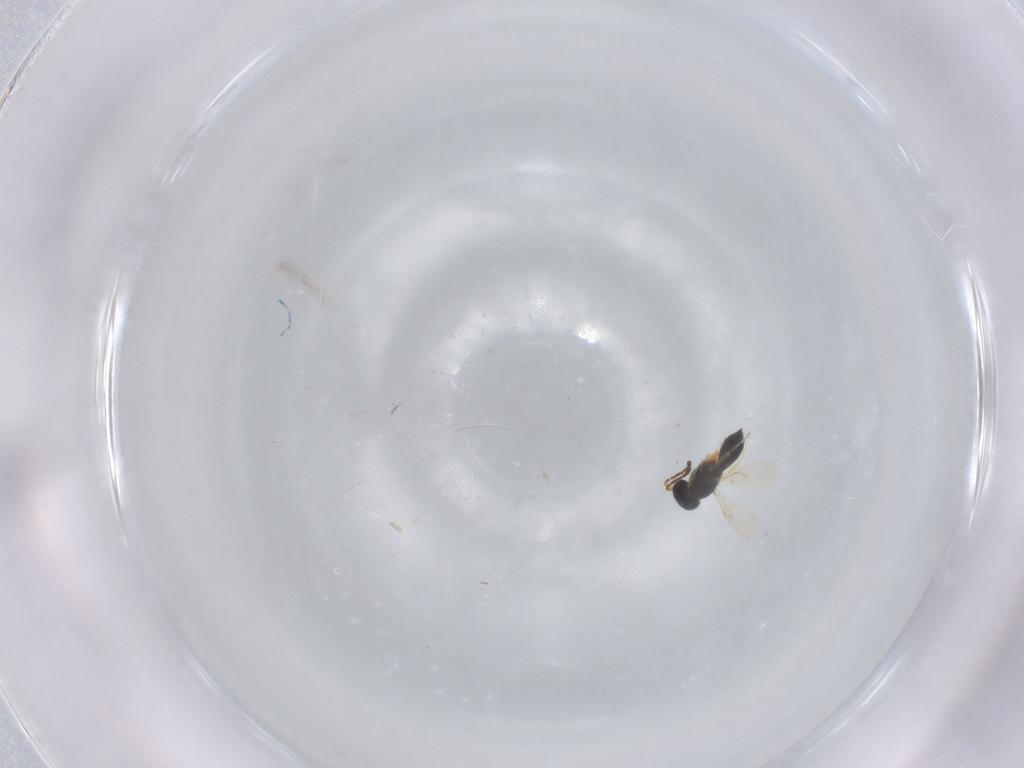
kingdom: Animalia
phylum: Arthropoda
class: Insecta
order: Hymenoptera
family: Scelionidae
